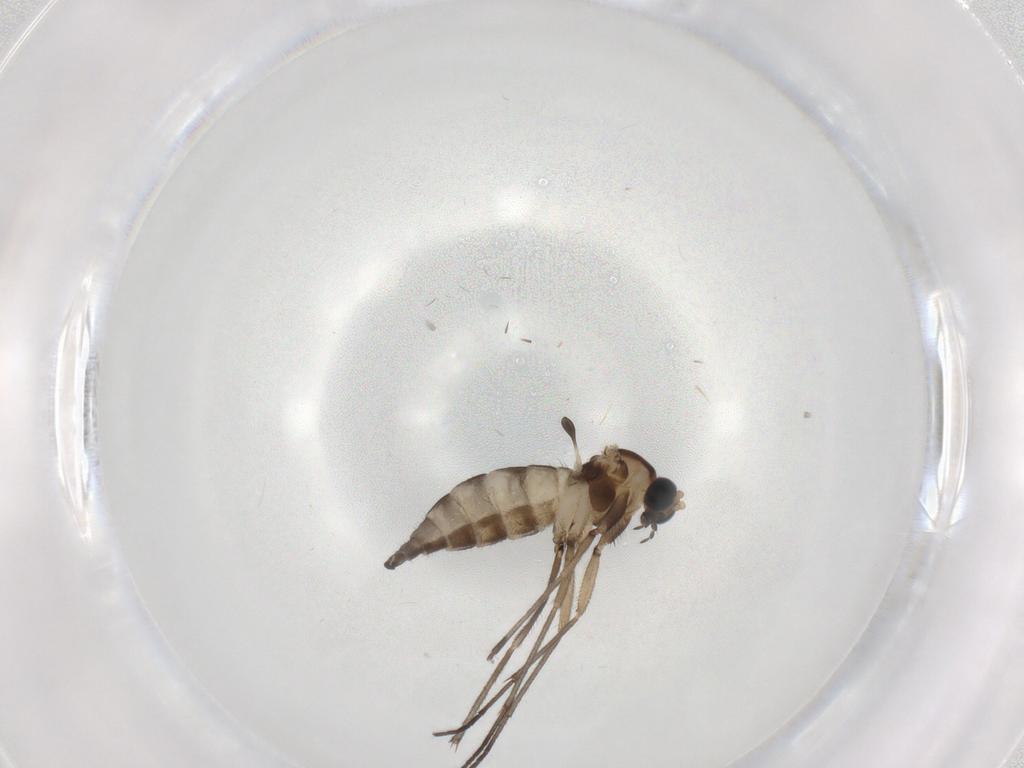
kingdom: Animalia
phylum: Arthropoda
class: Insecta
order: Diptera
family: Sciaridae
